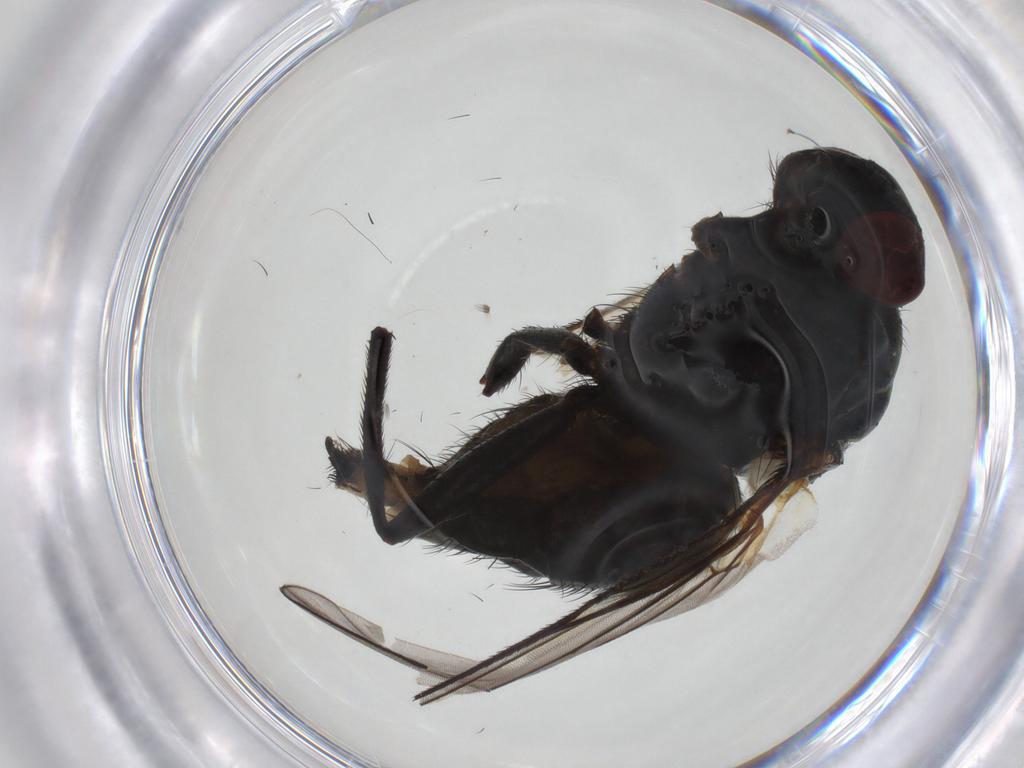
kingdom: Animalia
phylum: Arthropoda
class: Insecta
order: Diptera
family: Muscidae
